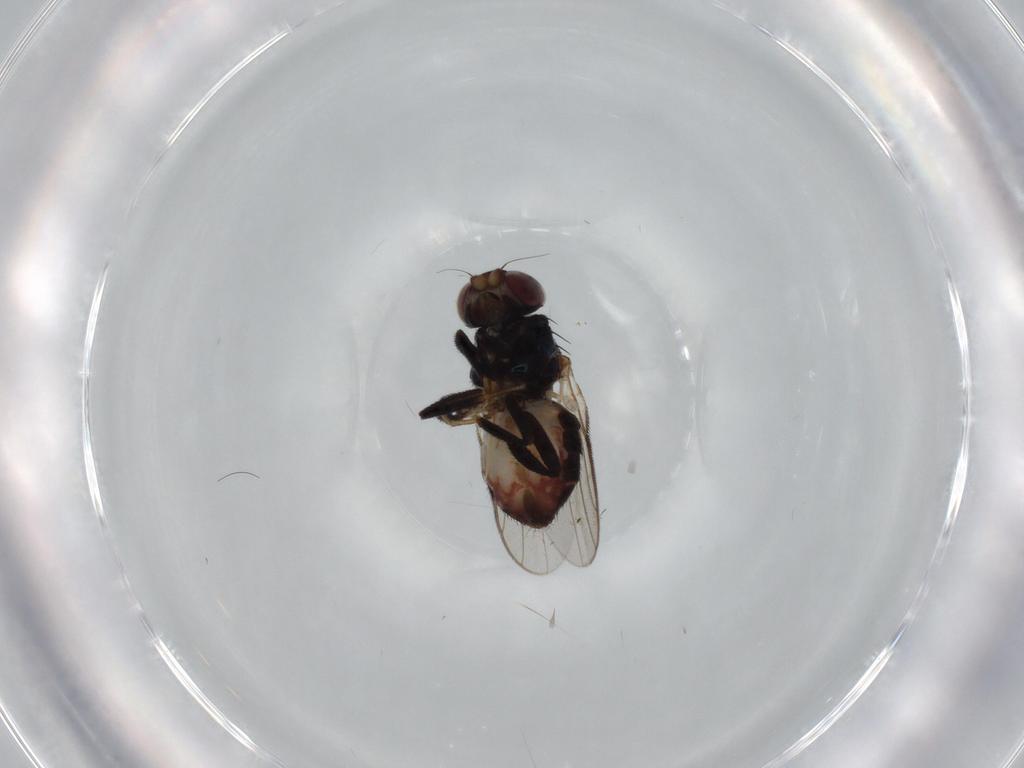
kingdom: Animalia
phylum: Arthropoda
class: Insecta
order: Diptera
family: Chloropidae
